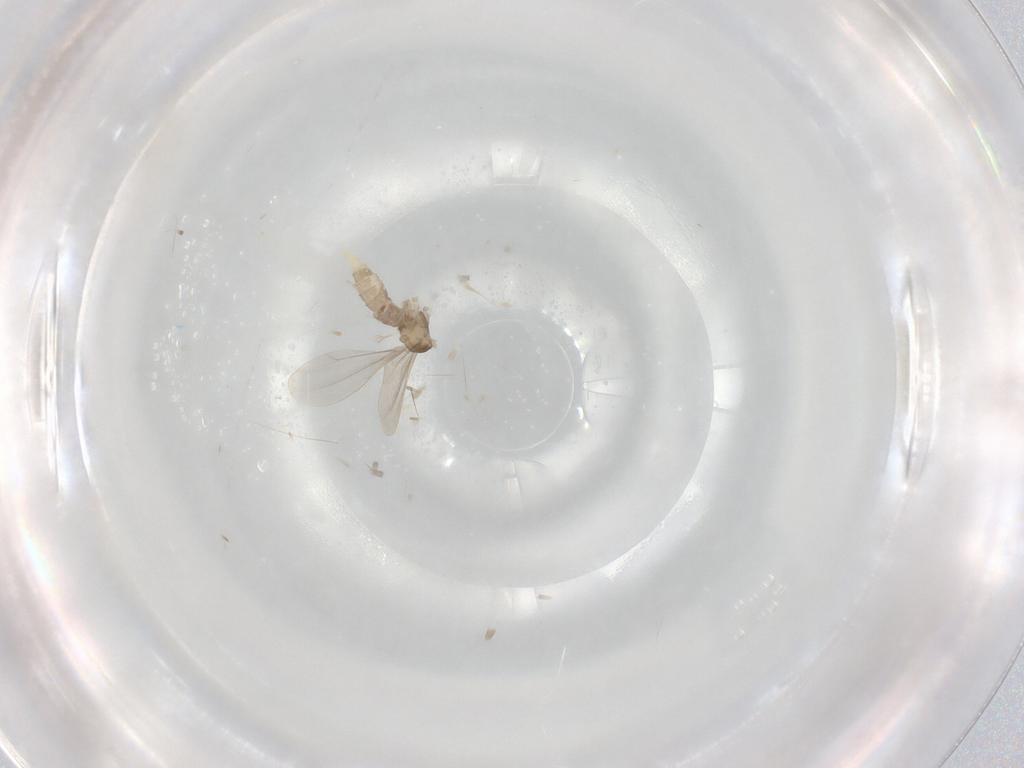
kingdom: Animalia
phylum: Arthropoda
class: Insecta
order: Diptera
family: Cecidomyiidae
